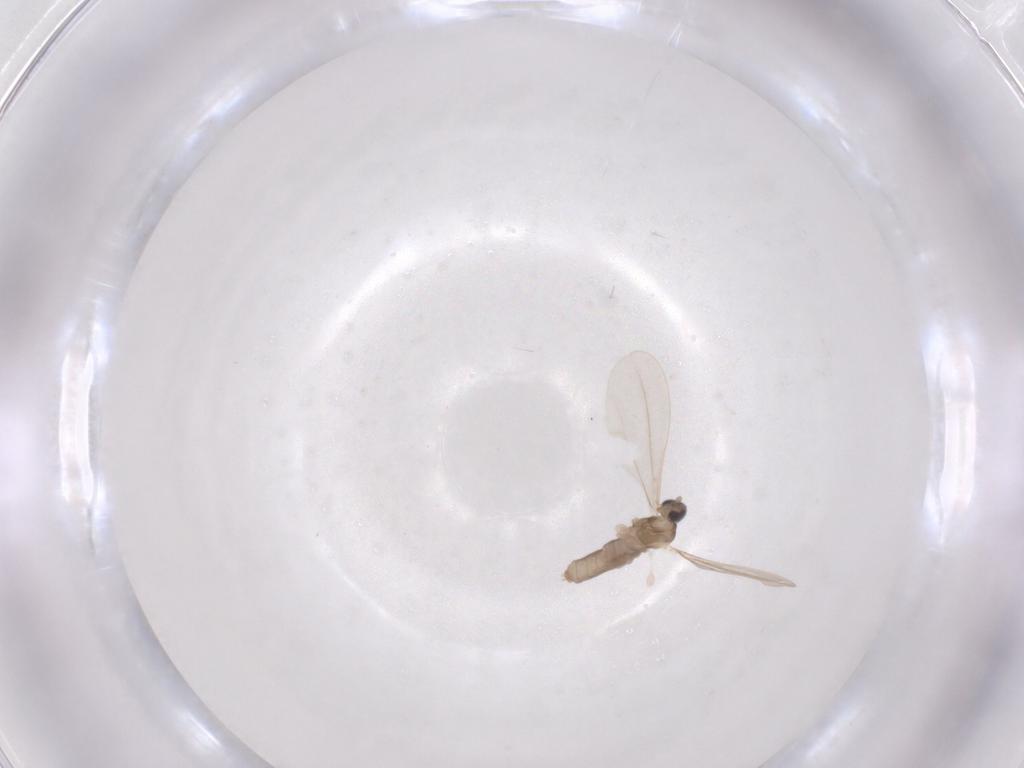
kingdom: Animalia
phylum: Arthropoda
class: Insecta
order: Diptera
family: Cecidomyiidae
